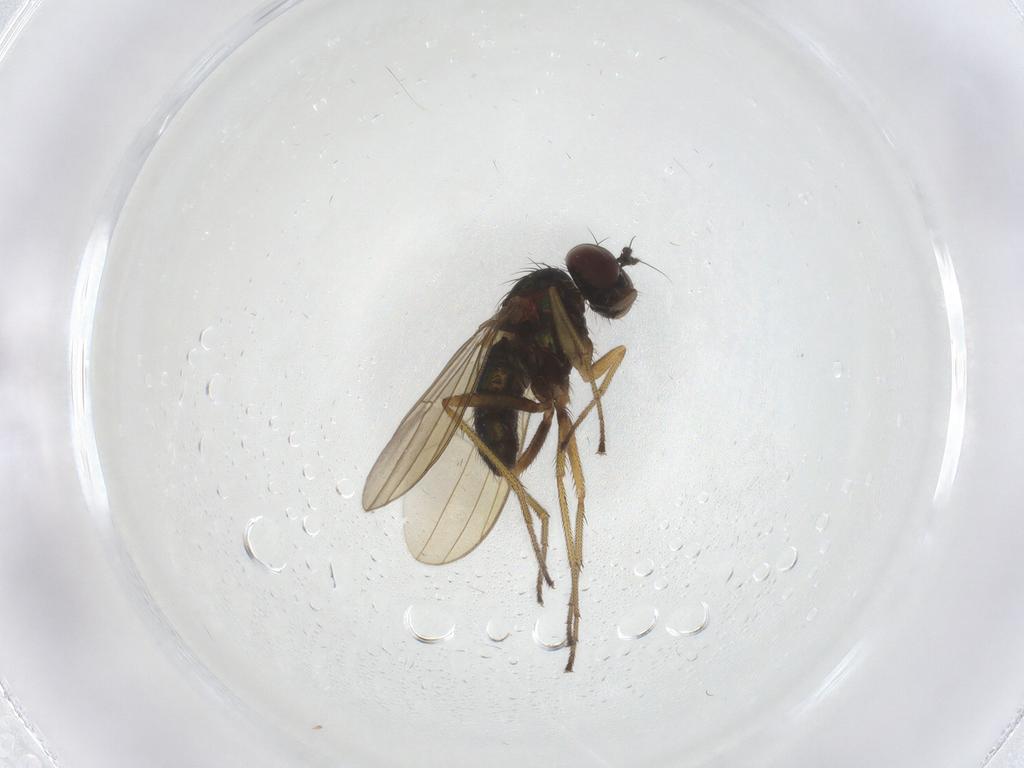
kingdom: Animalia
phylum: Arthropoda
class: Insecta
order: Diptera
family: Dolichopodidae
